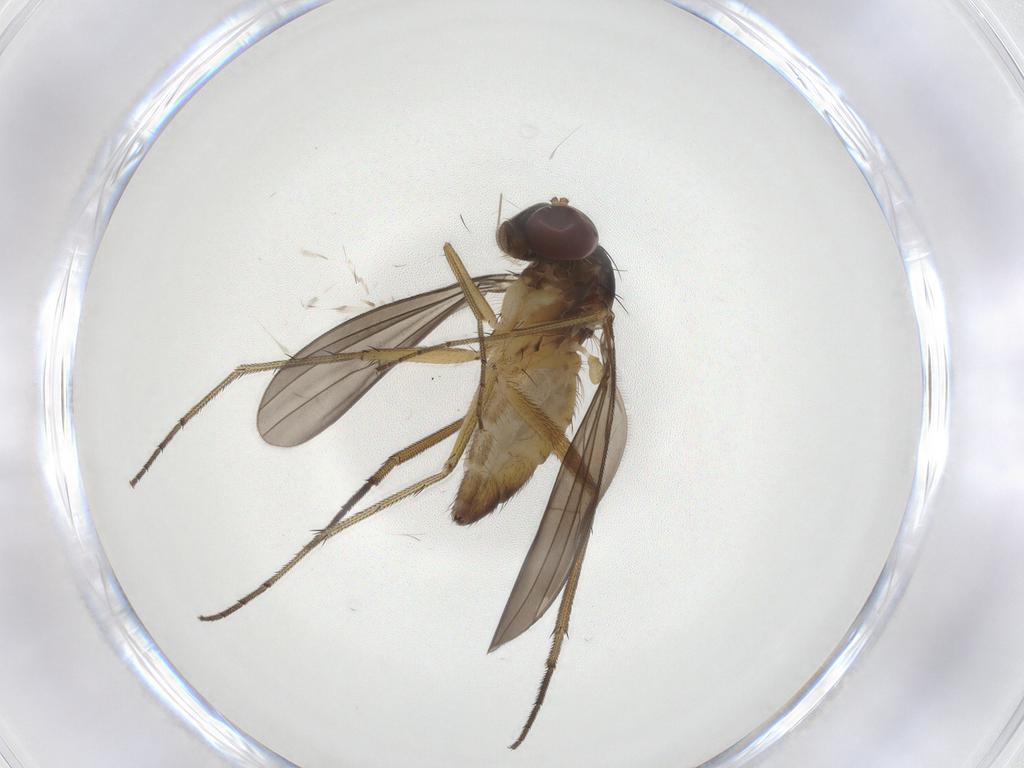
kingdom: Animalia
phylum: Arthropoda
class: Insecta
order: Diptera
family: Dolichopodidae
